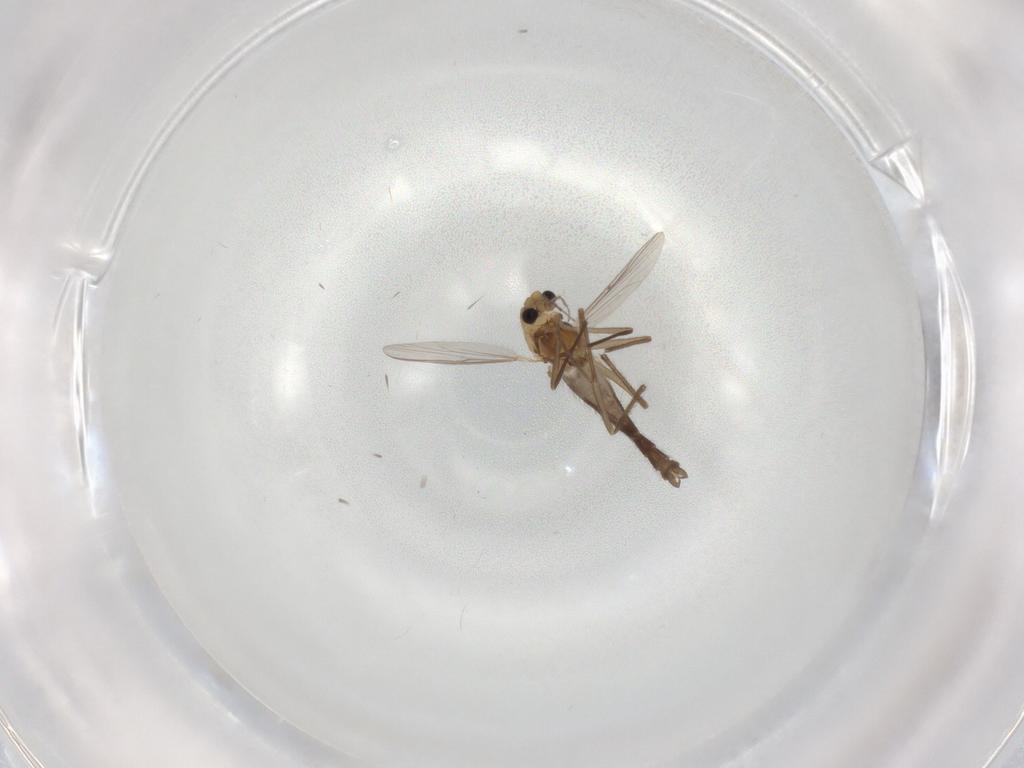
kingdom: Animalia
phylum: Arthropoda
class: Insecta
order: Diptera
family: Chironomidae
